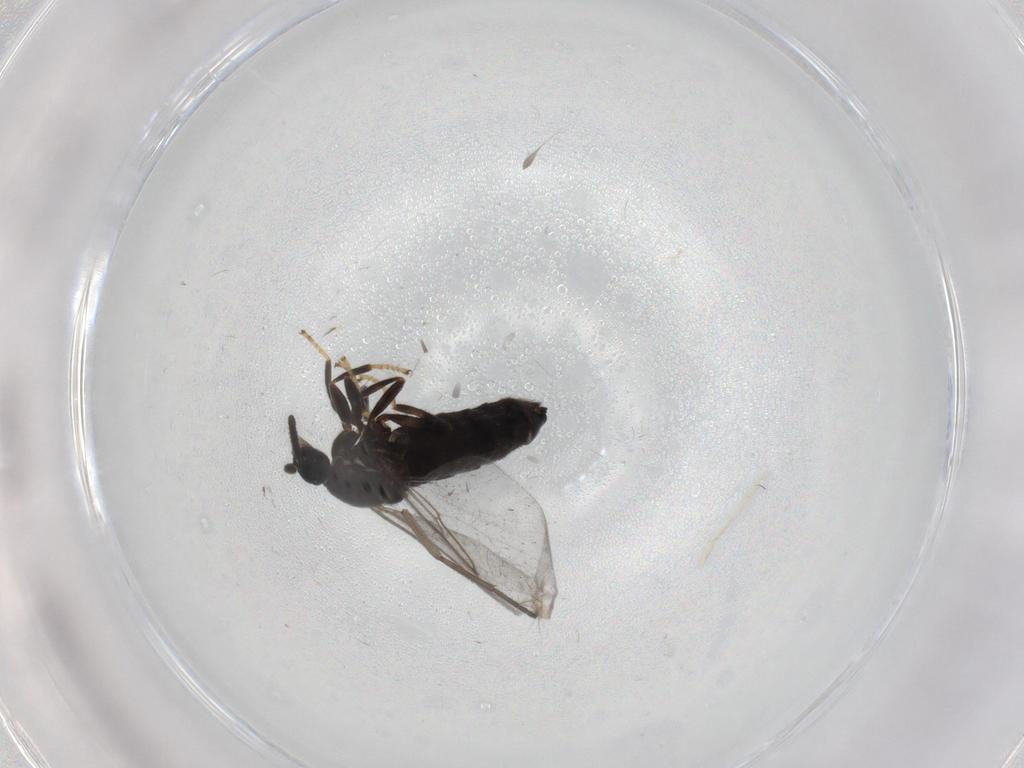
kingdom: Animalia
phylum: Arthropoda
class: Insecta
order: Diptera
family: Scatopsidae
